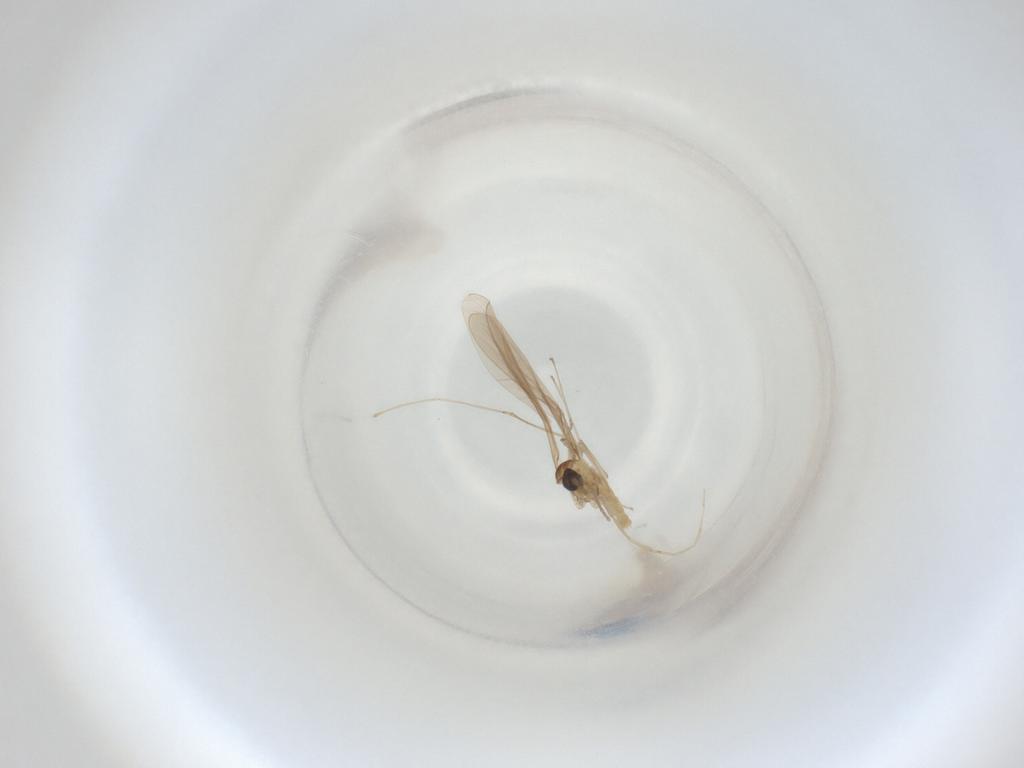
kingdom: Animalia
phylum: Arthropoda
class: Insecta
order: Diptera
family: Cecidomyiidae
